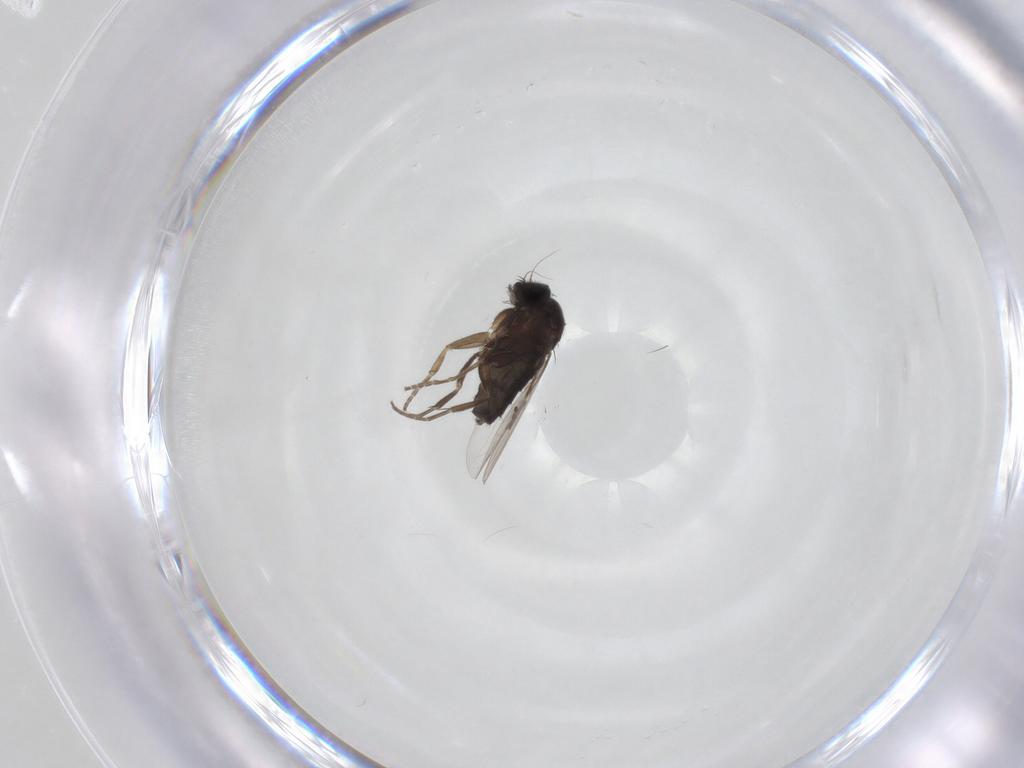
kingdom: Animalia
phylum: Arthropoda
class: Insecta
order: Diptera
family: Phoridae
